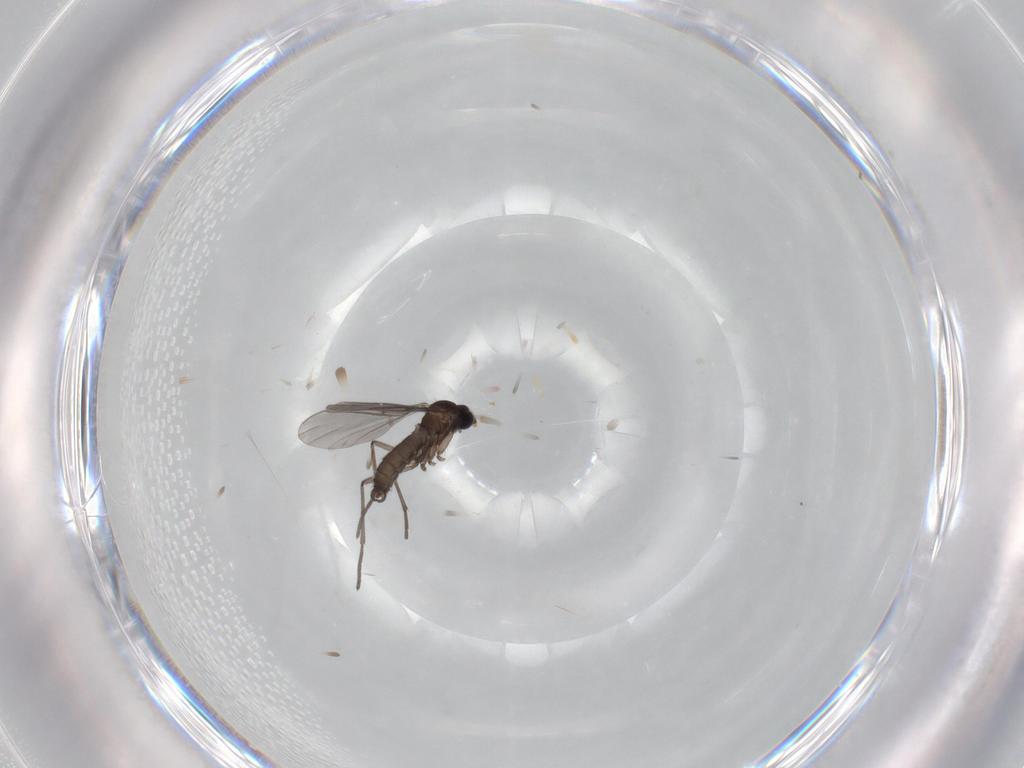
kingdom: Animalia
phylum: Arthropoda
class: Insecta
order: Diptera
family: Sciaridae
